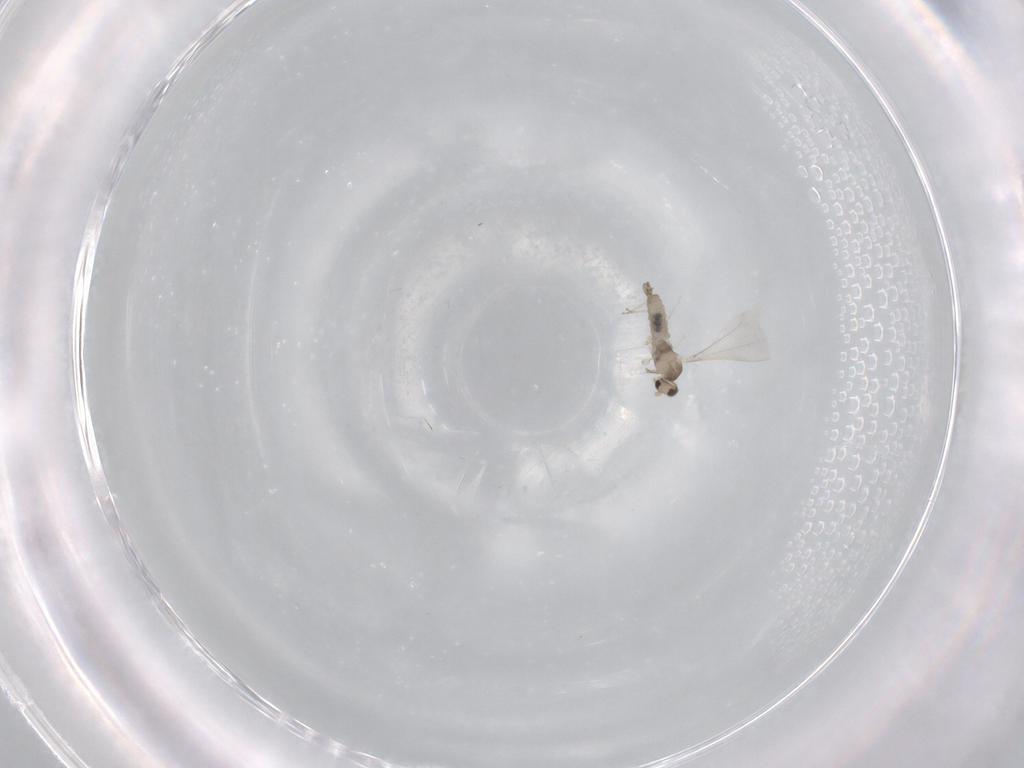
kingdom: Animalia
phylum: Arthropoda
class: Insecta
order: Diptera
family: Cecidomyiidae
